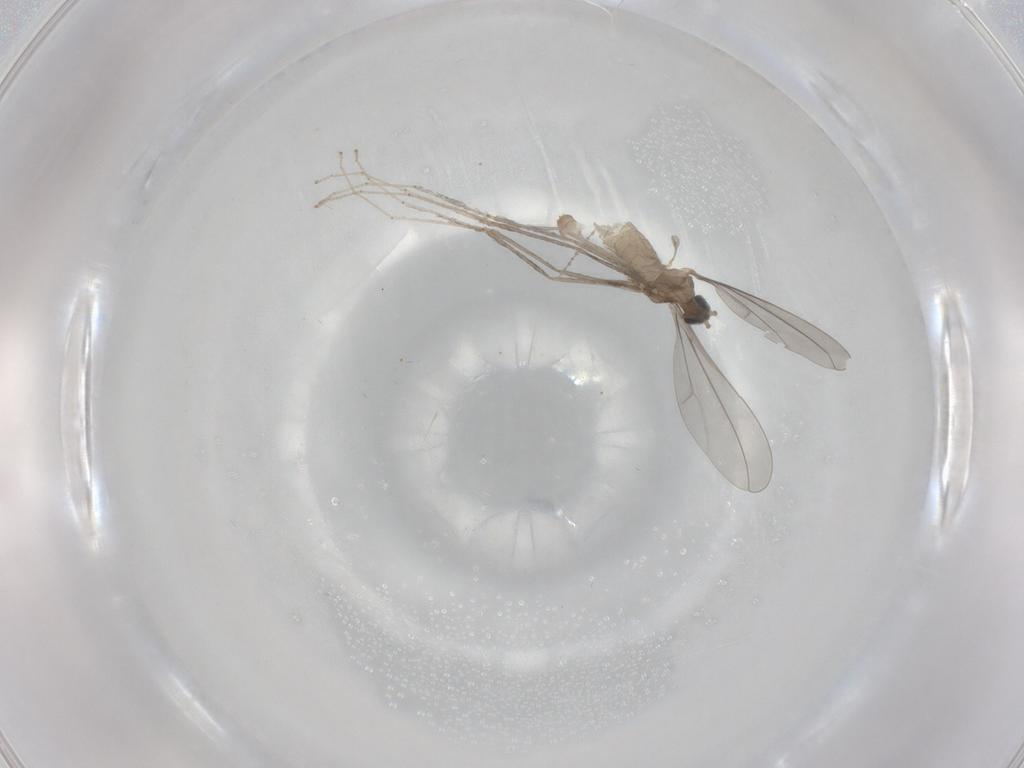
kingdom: Animalia
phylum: Arthropoda
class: Insecta
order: Diptera
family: Cecidomyiidae
